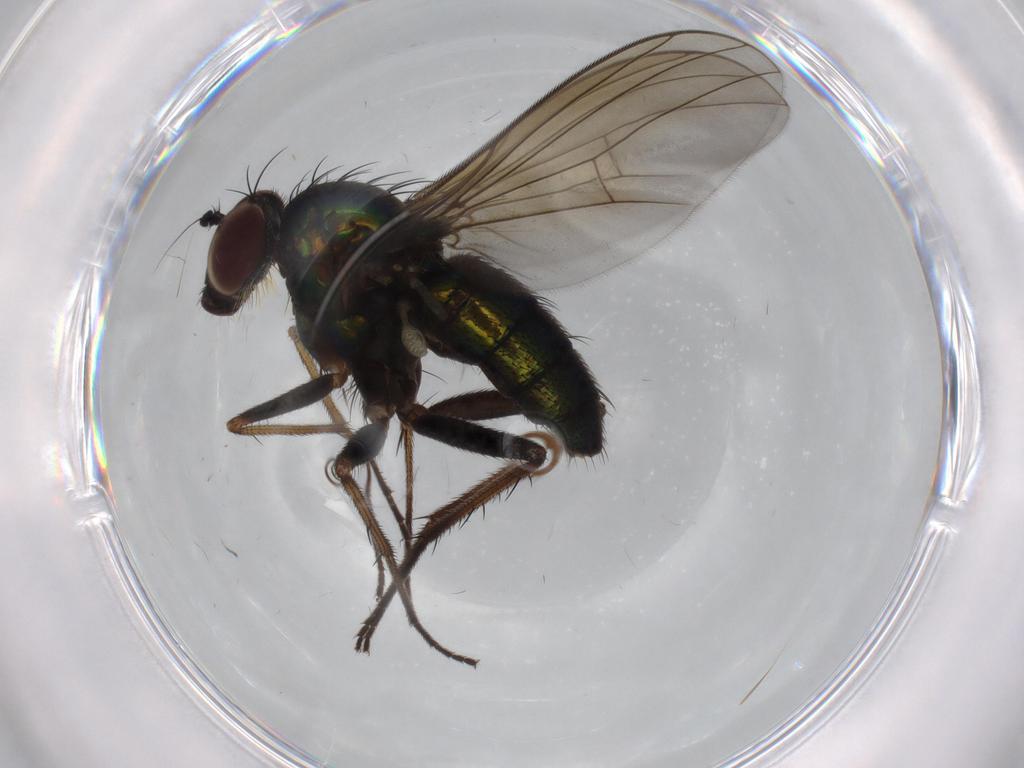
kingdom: Animalia
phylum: Arthropoda
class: Insecta
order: Diptera
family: Dolichopodidae
